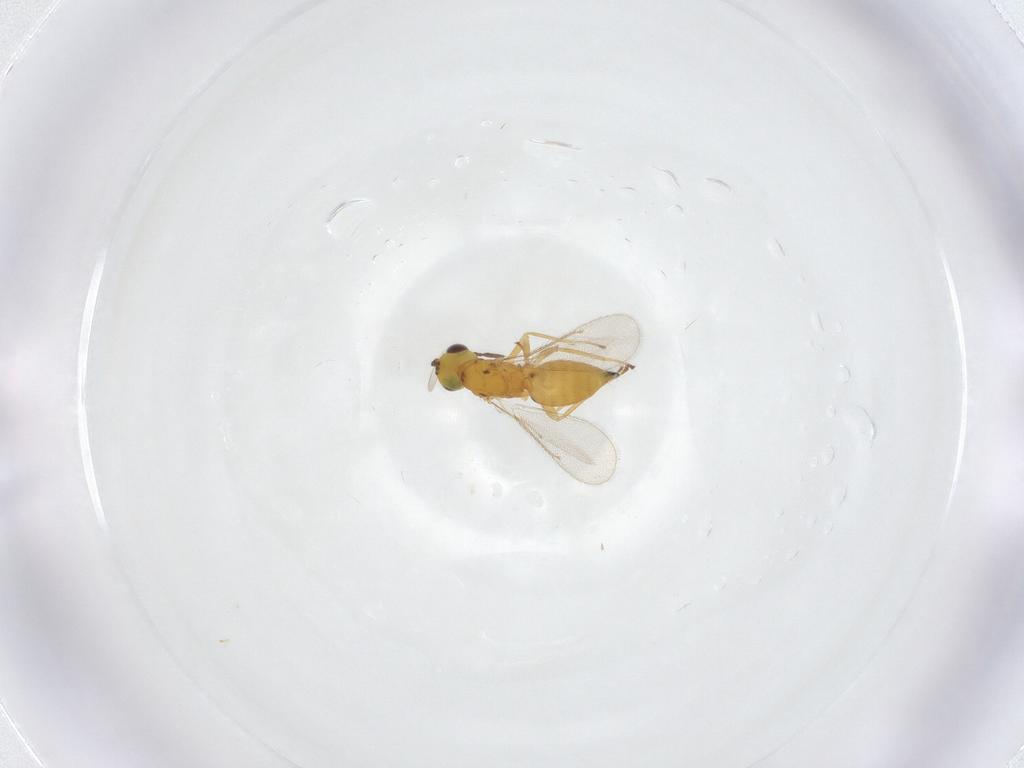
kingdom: Animalia
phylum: Arthropoda
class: Insecta
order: Hymenoptera
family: Eulophidae
